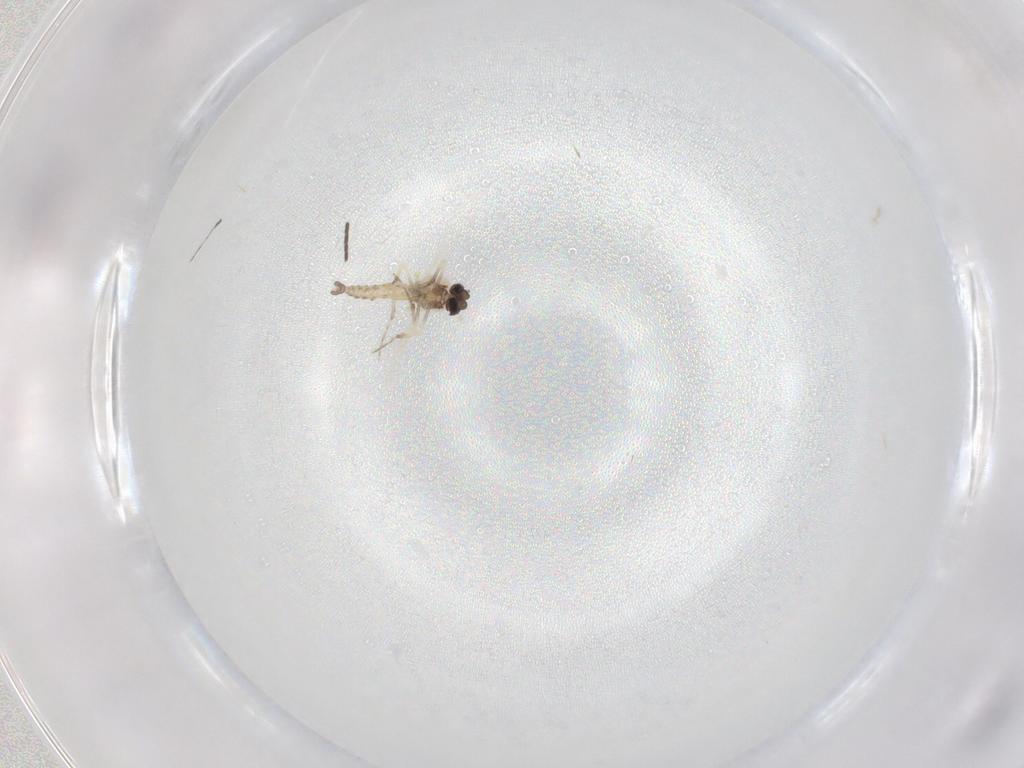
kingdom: Animalia
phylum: Arthropoda
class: Insecta
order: Diptera
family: Ceratopogonidae
